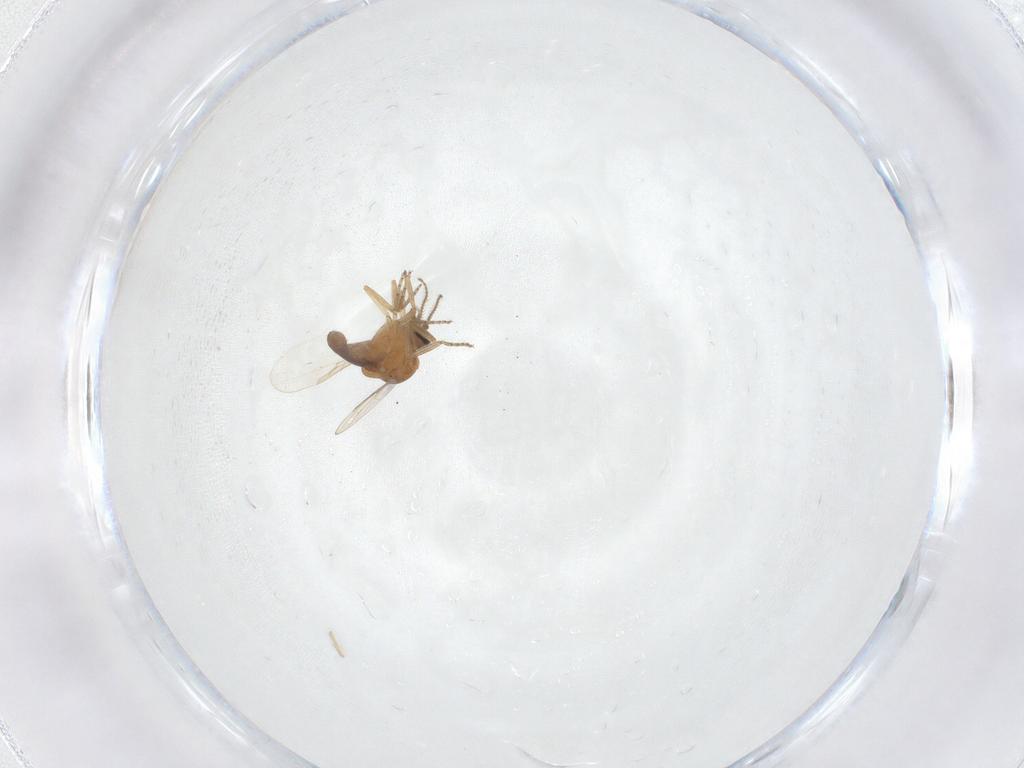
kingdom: Animalia
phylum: Arthropoda
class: Insecta
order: Diptera
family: Ceratopogonidae
